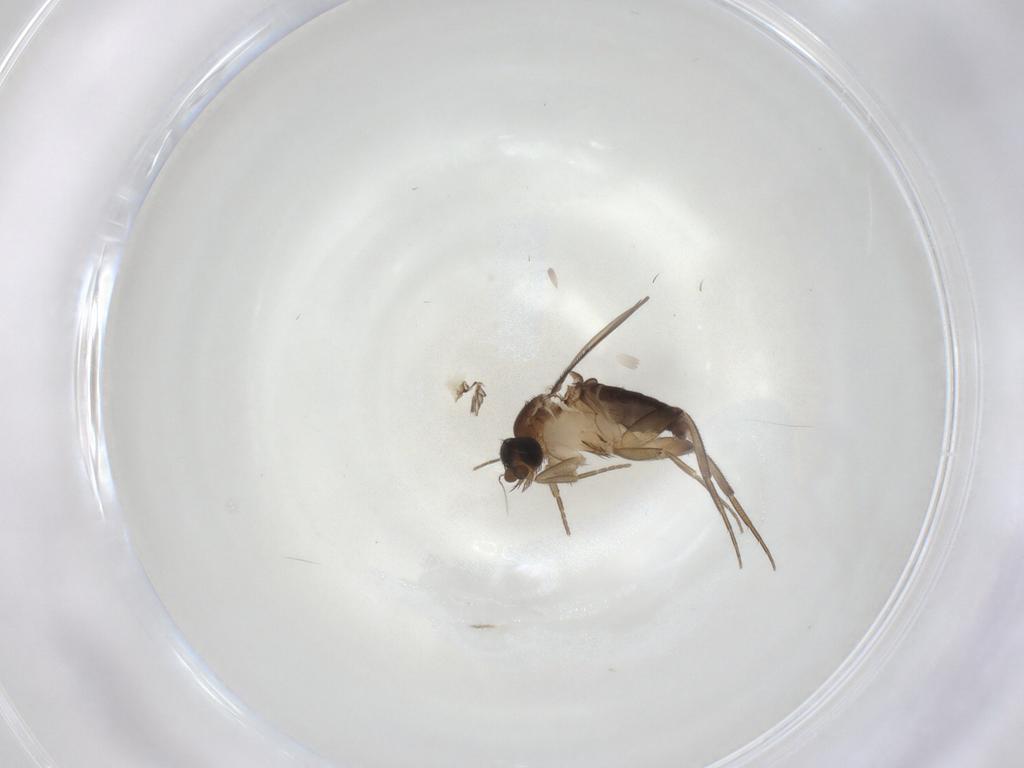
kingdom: Animalia
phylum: Arthropoda
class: Insecta
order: Diptera
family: Phoridae
